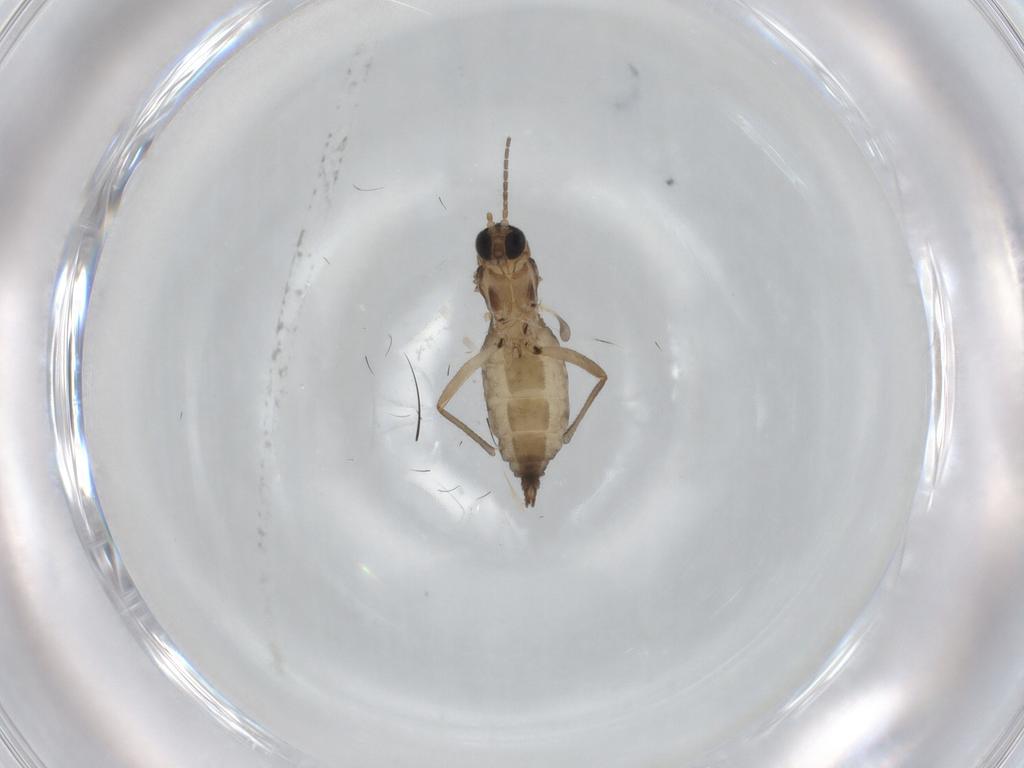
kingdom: Animalia
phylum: Arthropoda
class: Insecta
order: Diptera
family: Sciaridae
